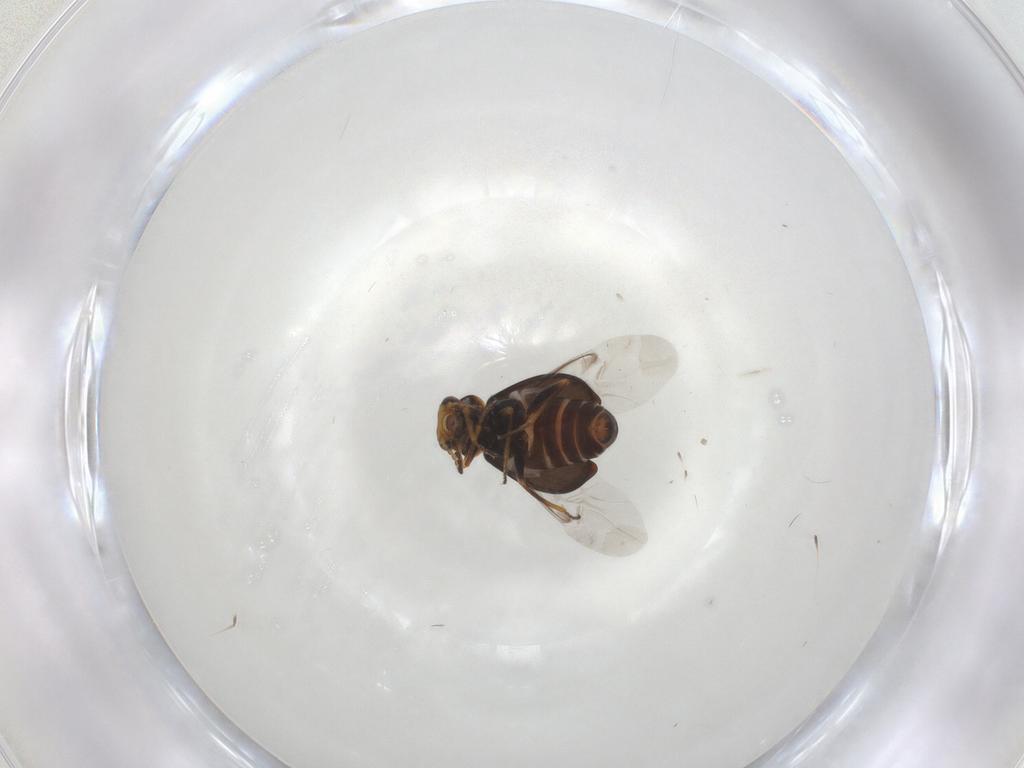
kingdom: Animalia
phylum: Arthropoda
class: Insecta
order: Coleoptera
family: Melyridae
